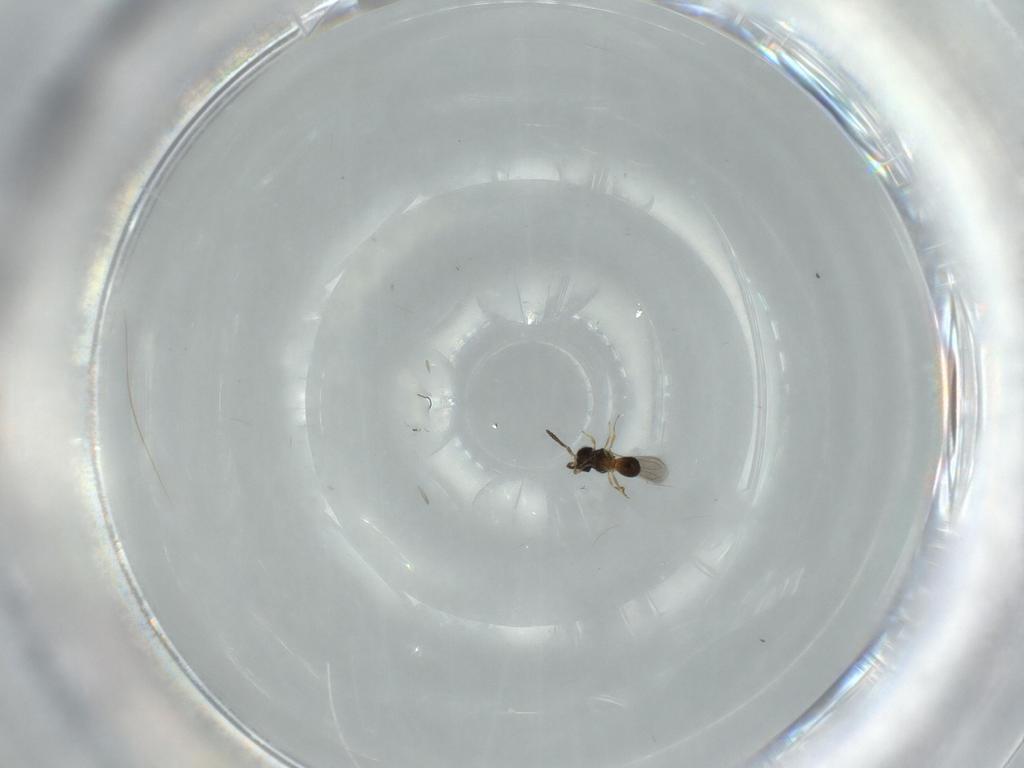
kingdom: Animalia
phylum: Arthropoda
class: Insecta
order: Hymenoptera
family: Scelionidae
